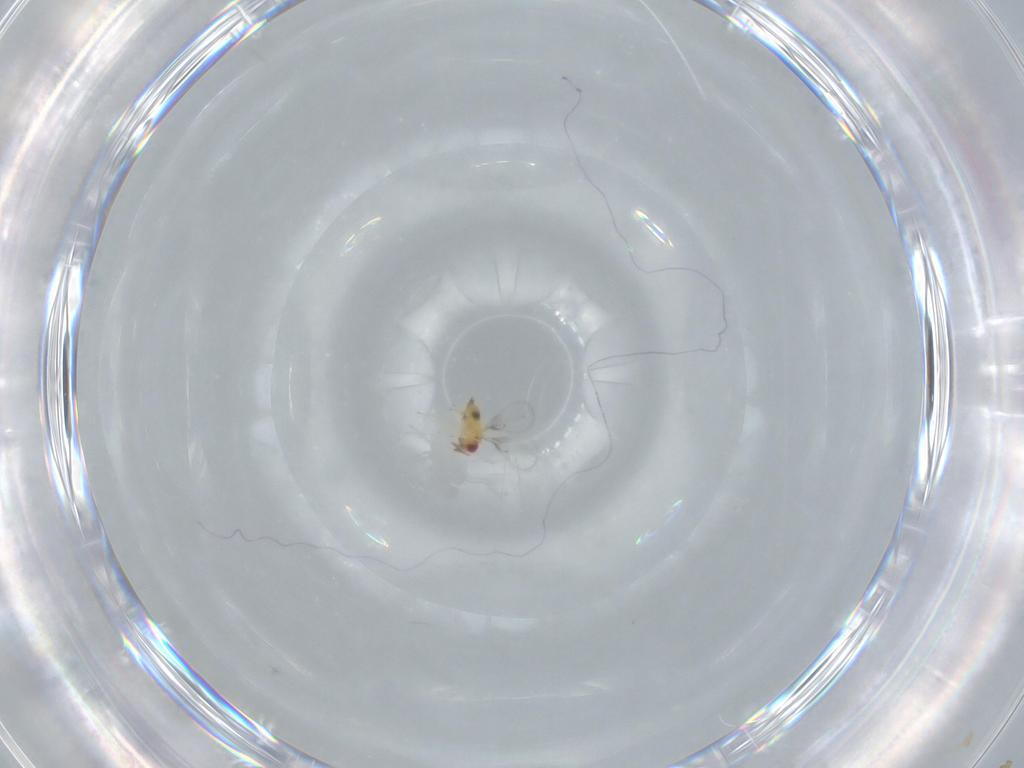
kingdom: Animalia
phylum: Arthropoda
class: Insecta
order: Hymenoptera
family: Trichogrammatidae
